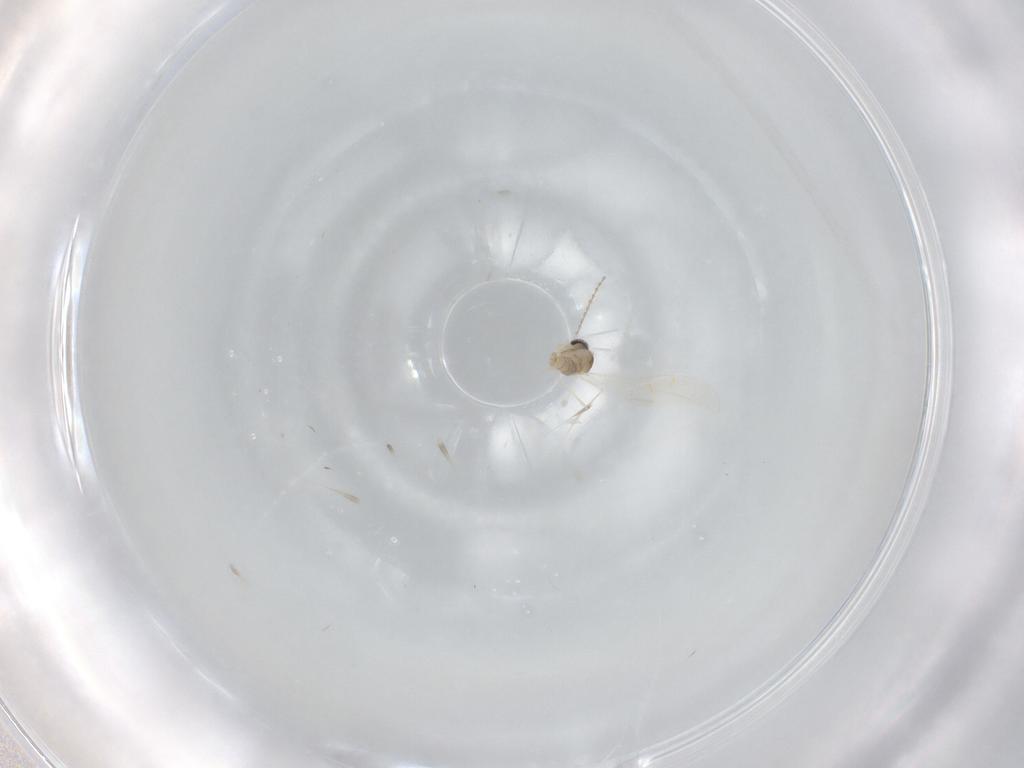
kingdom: Animalia
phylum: Arthropoda
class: Insecta
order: Diptera
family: Cecidomyiidae
